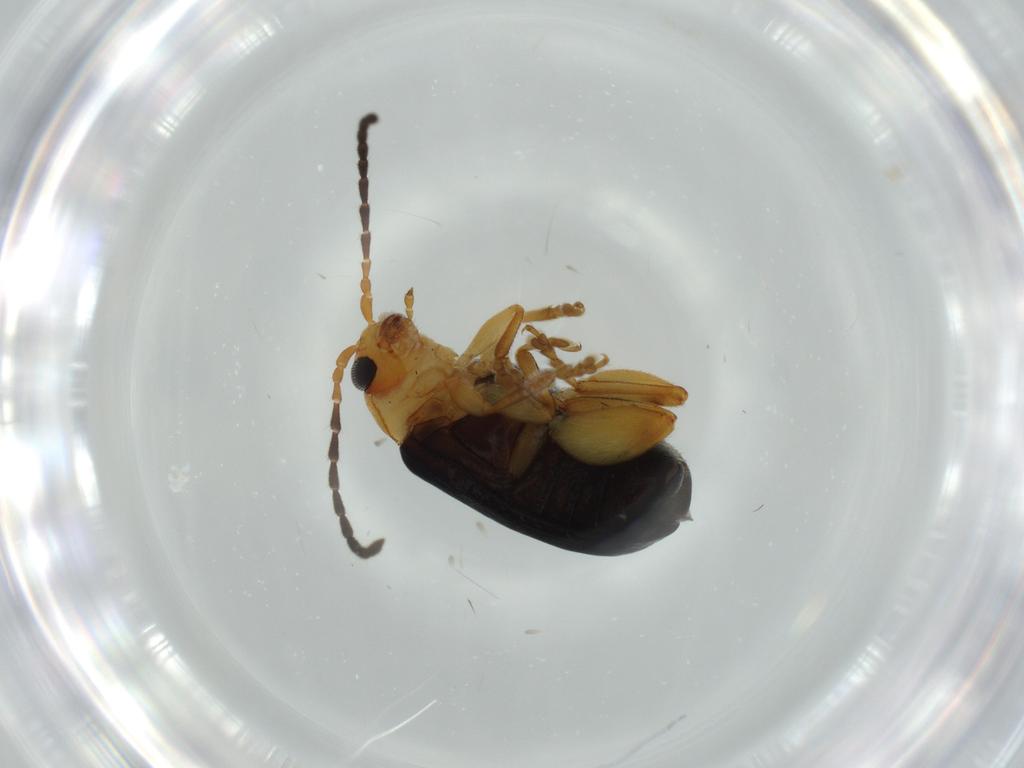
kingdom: Animalia
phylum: Arthropoda
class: Insecta
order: Coleoptera
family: Chrysomelidae
